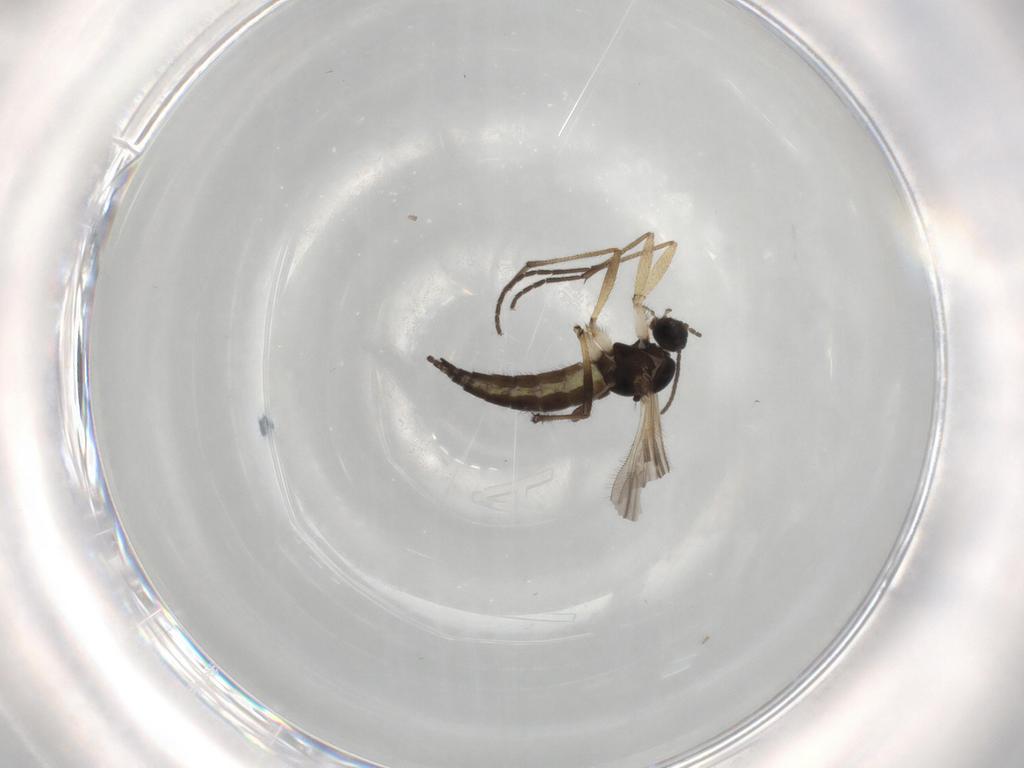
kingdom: Animalia
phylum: Arthropoda
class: Insecta
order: Diptera
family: Sciaridae
